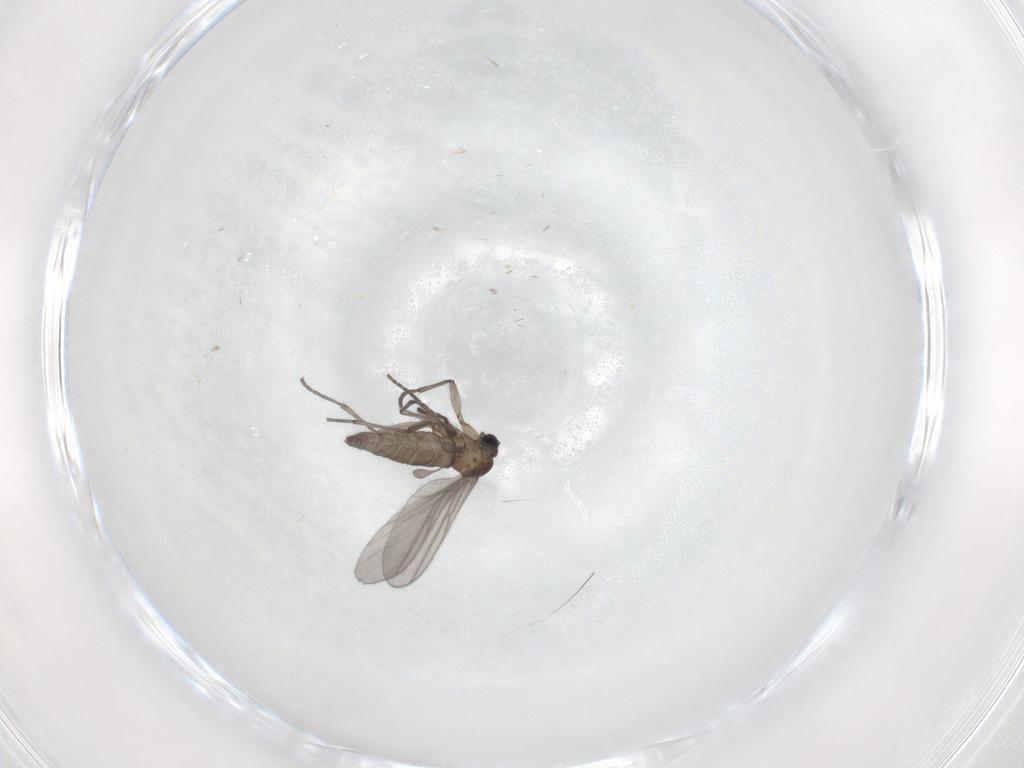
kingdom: Animalia
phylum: Arthropoda
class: Insecta
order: Diptera
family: Sciaridae
